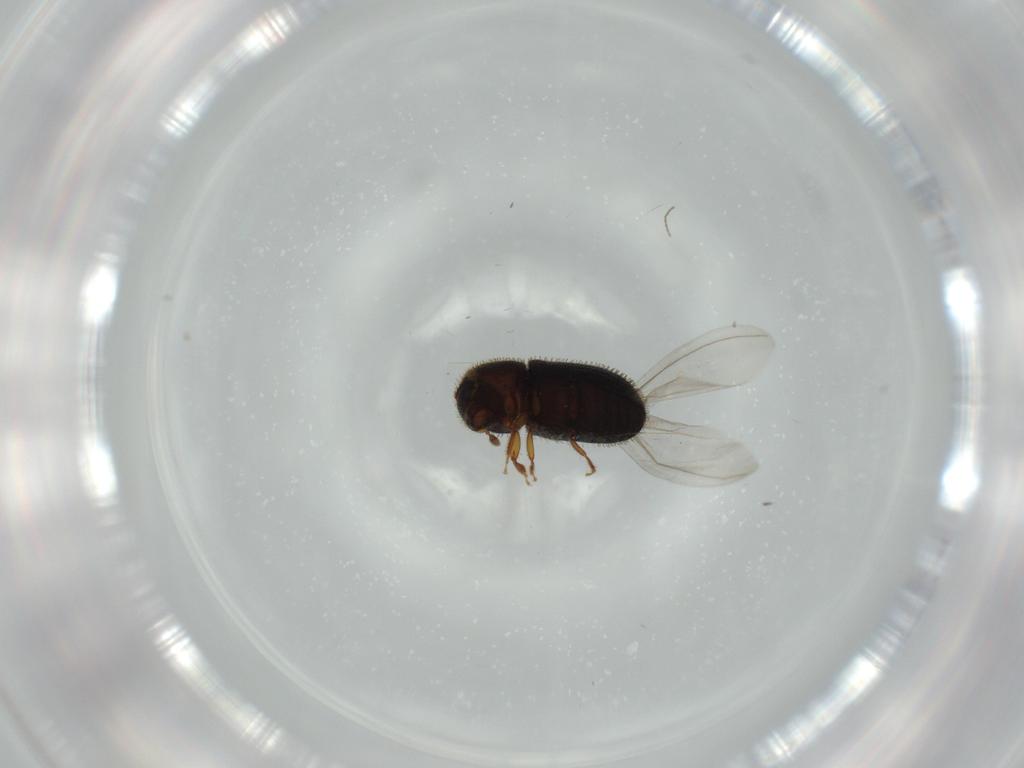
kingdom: Animalia
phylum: Arthropoda
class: Insecta
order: Coleoptera
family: Curculionidae
